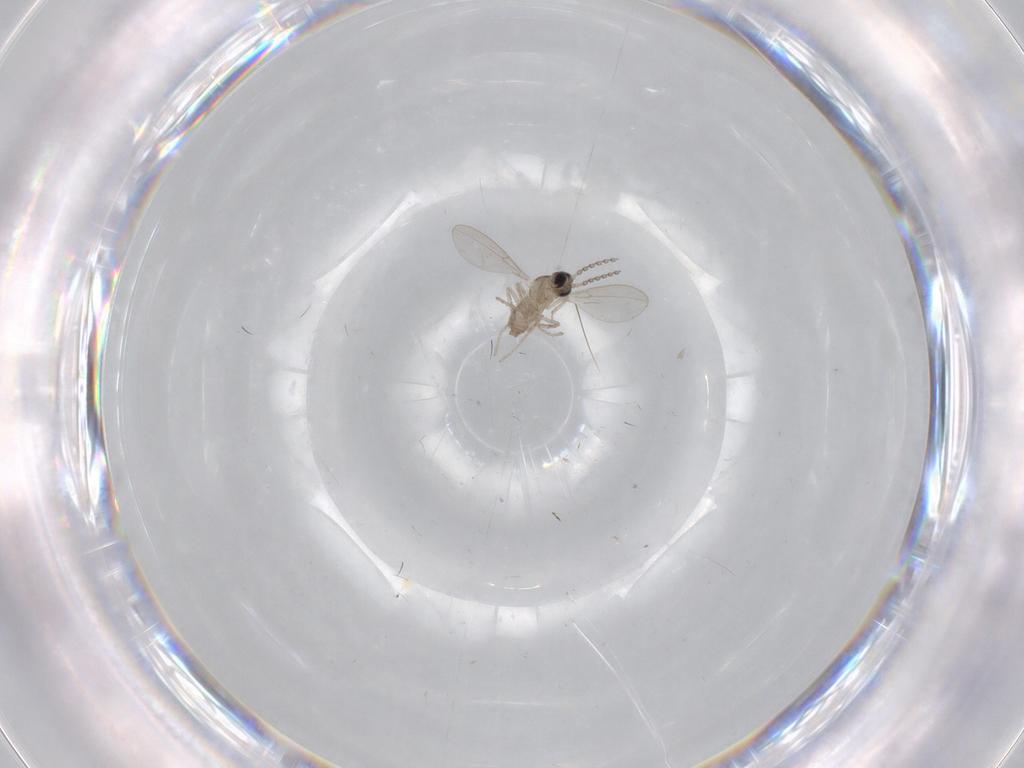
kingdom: Animalia
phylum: Arthropoda
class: Insecta
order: Diptera
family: Cecidomyiidae
